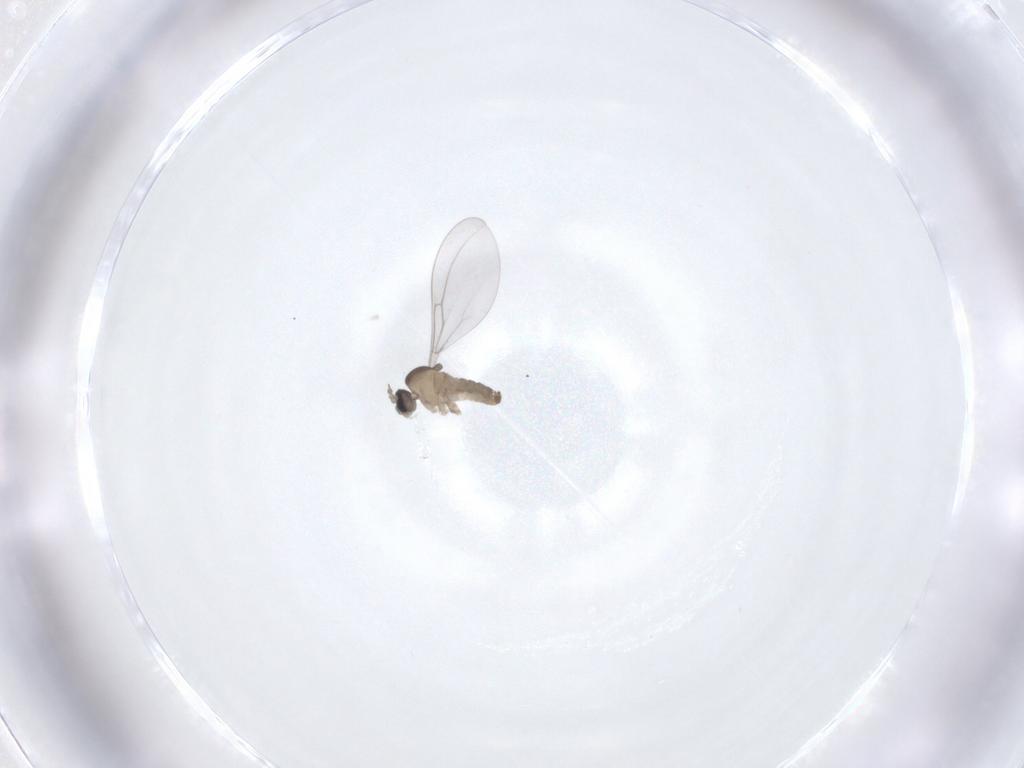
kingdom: Animalia
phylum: Arthropoda
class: Insecta
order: Diptera
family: Cecidomyiidae
